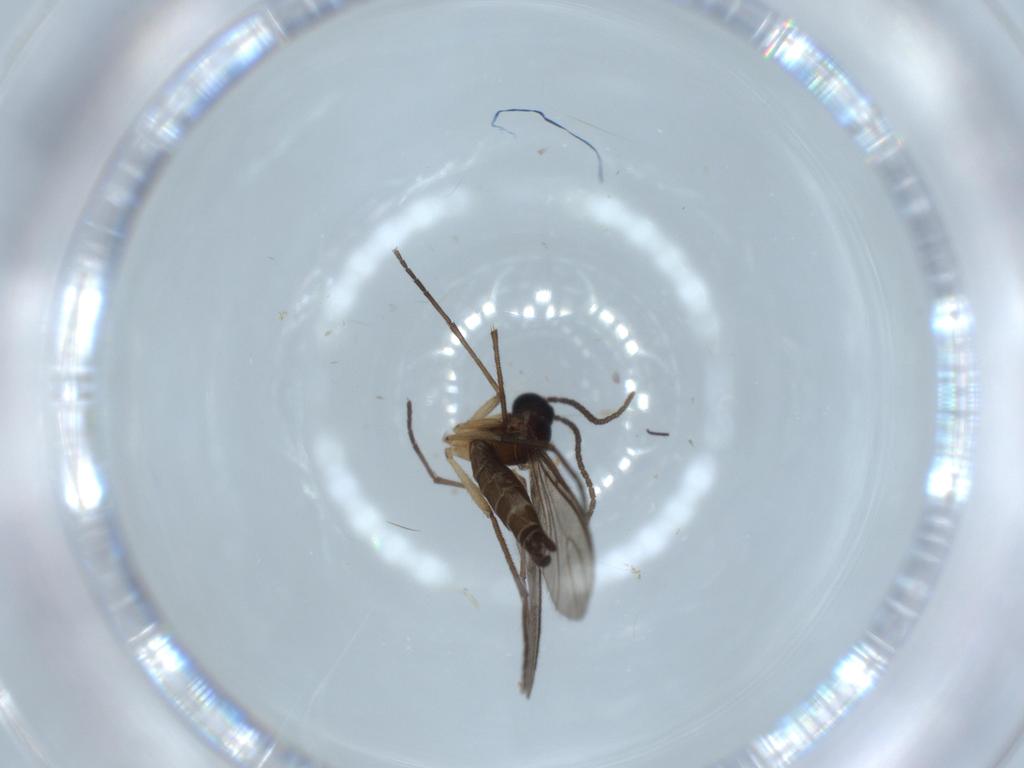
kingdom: Animalia
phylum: Arthropoda
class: Insecta
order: Diptera
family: Sciaridae
